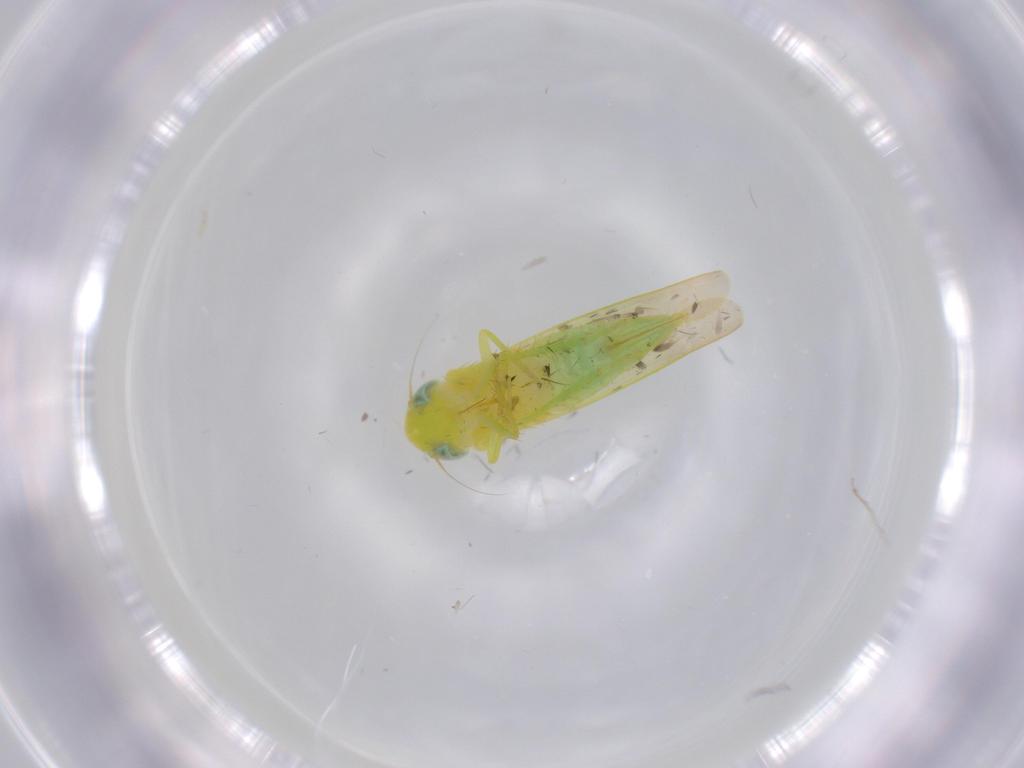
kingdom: Animalia
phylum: Arthropoda
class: Insecta
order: Hemiptera
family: Cicadellidae
